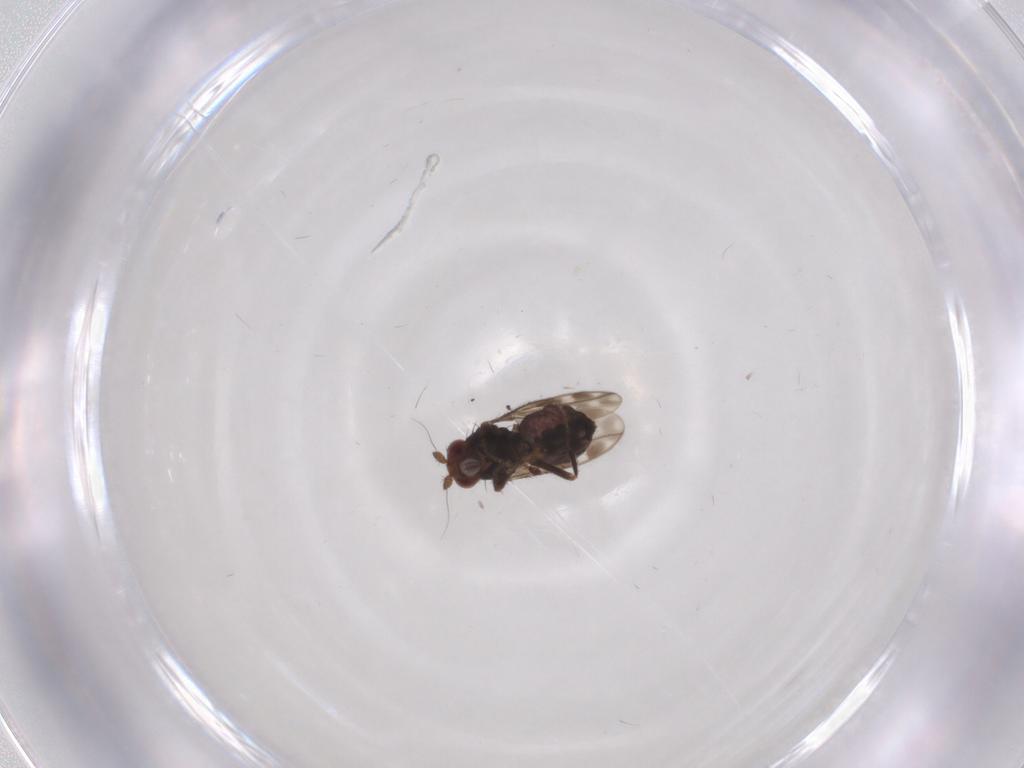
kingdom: Animalia
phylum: Arthropoda
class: Insecta
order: Diptera
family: Sphaeroceridae
